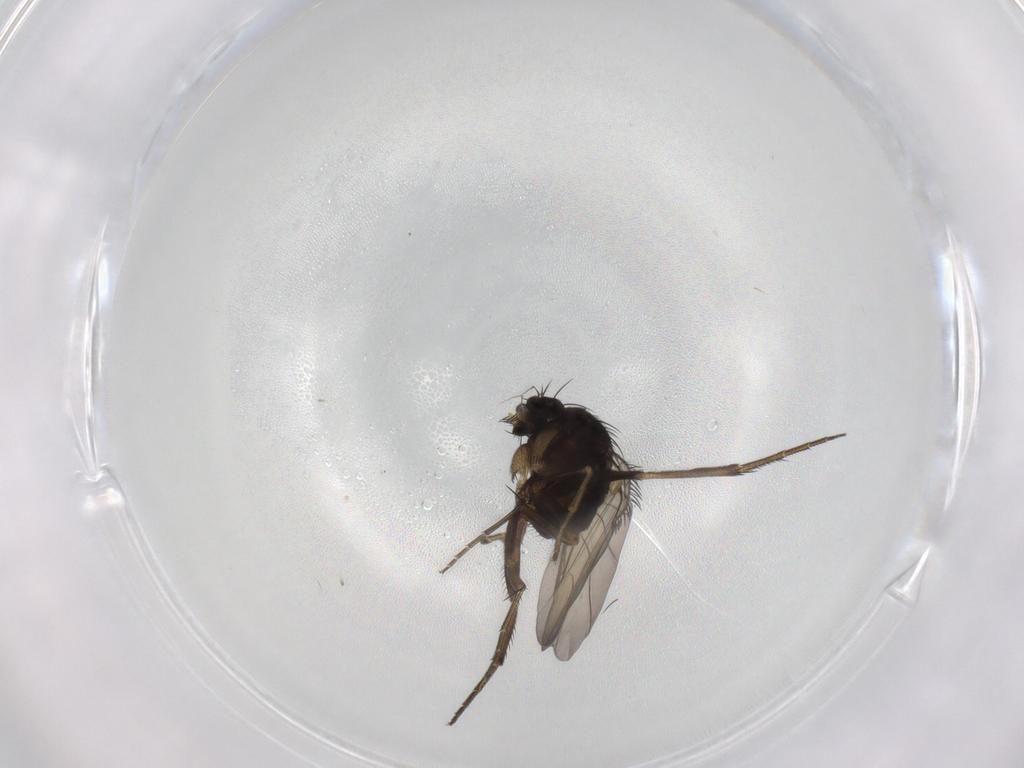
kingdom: Animalia
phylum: Arthropoda
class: Insecta
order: Diptera
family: Phoridae
